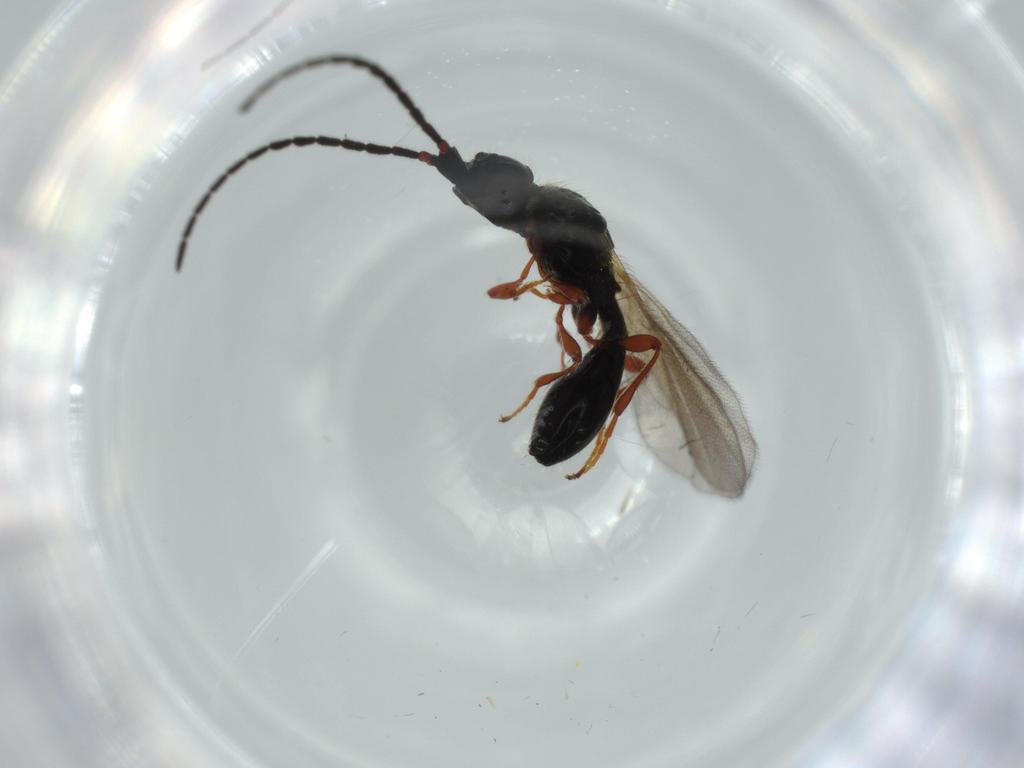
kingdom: Animalia
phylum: Arthropoda
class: Insecta
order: Hymenoptera
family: Diapriidae
